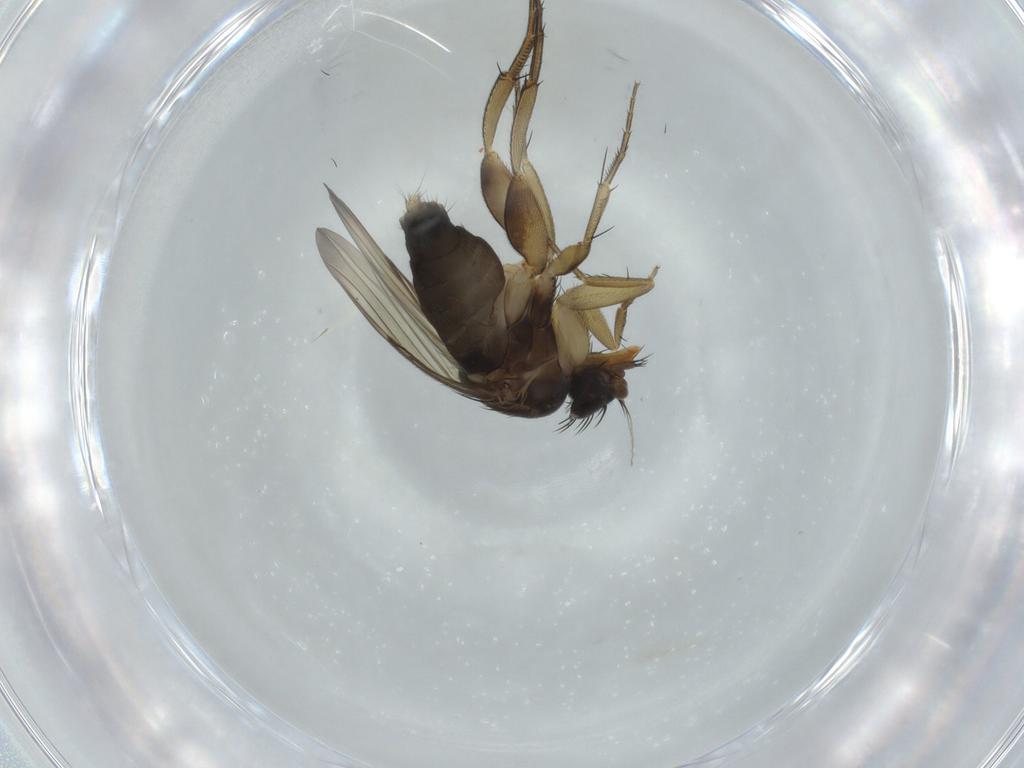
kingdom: Animalia
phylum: Arthropoda
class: Insecta
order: Diptera
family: Phoridae
